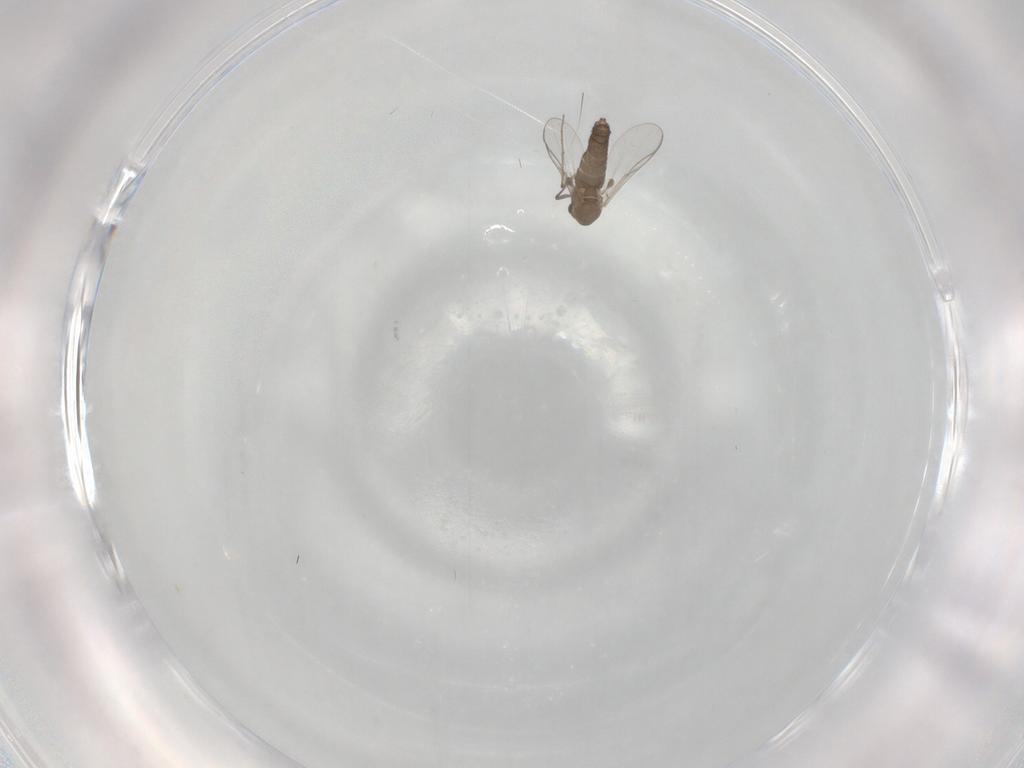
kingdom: Animalia
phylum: Arthropoda
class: Insecta
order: Diptera
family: Chironomidae
